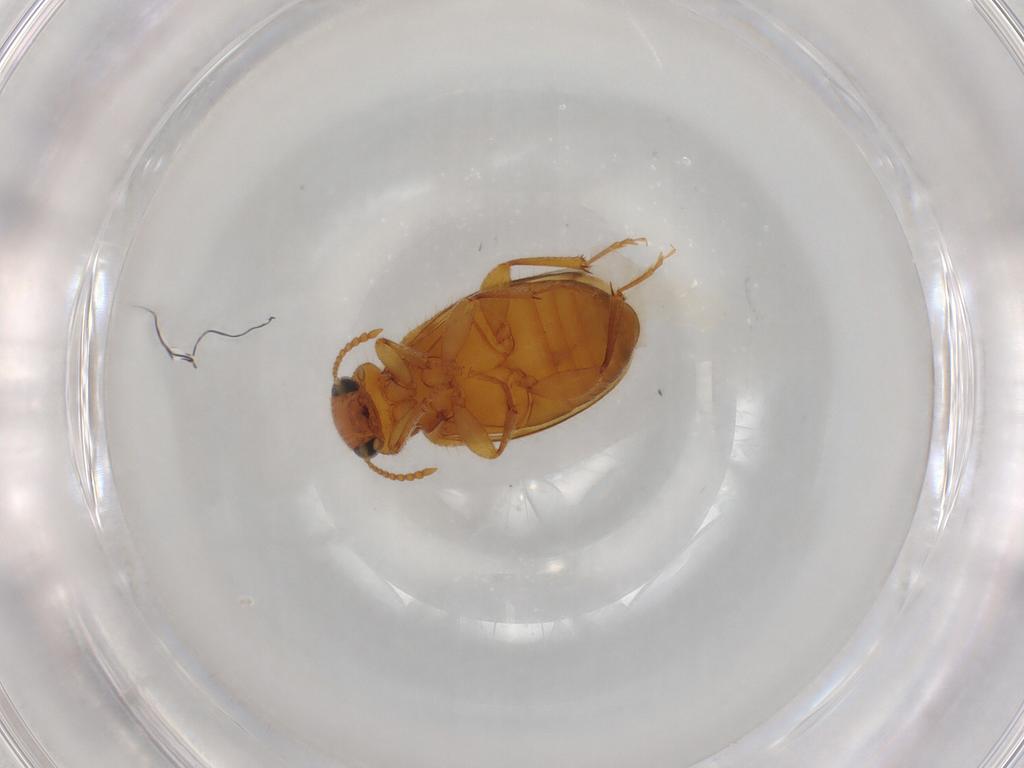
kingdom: Animalia
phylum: Arthropoda
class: Insecta
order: Coleoptera
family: Anthicidae
